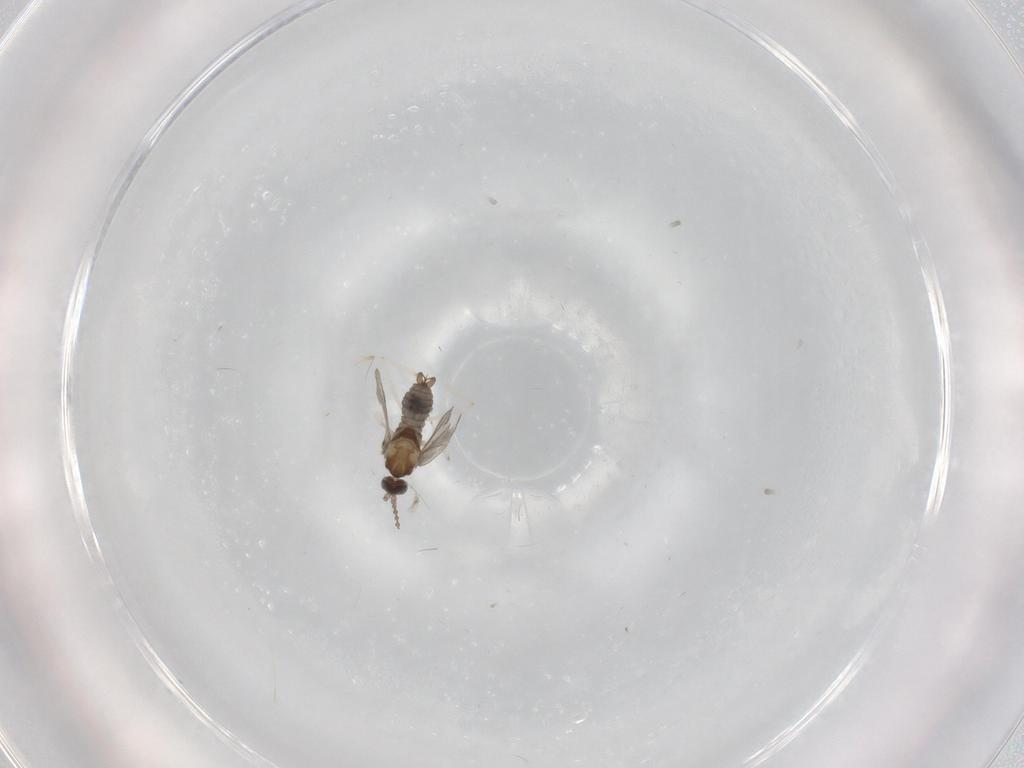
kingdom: Animalia
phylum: Arthropoda
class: Insecta
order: Diptera
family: Cecidomyiidae
